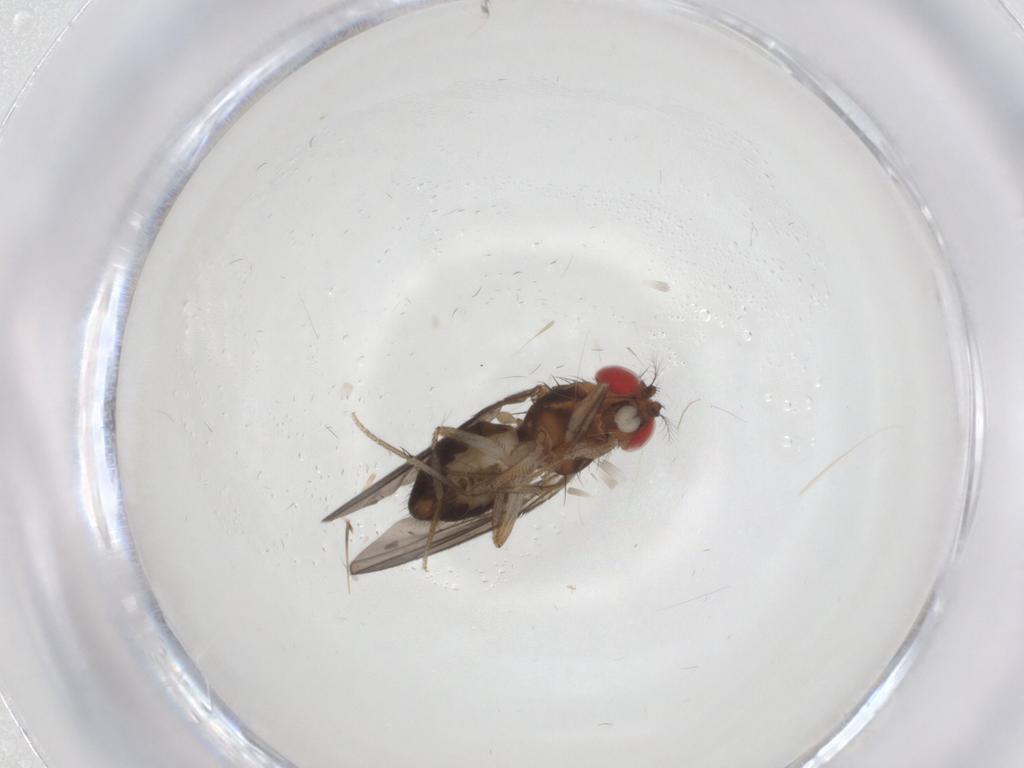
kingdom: Animalia
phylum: Arthropoda
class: Insecta
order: Diptera
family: Drosophilidae
